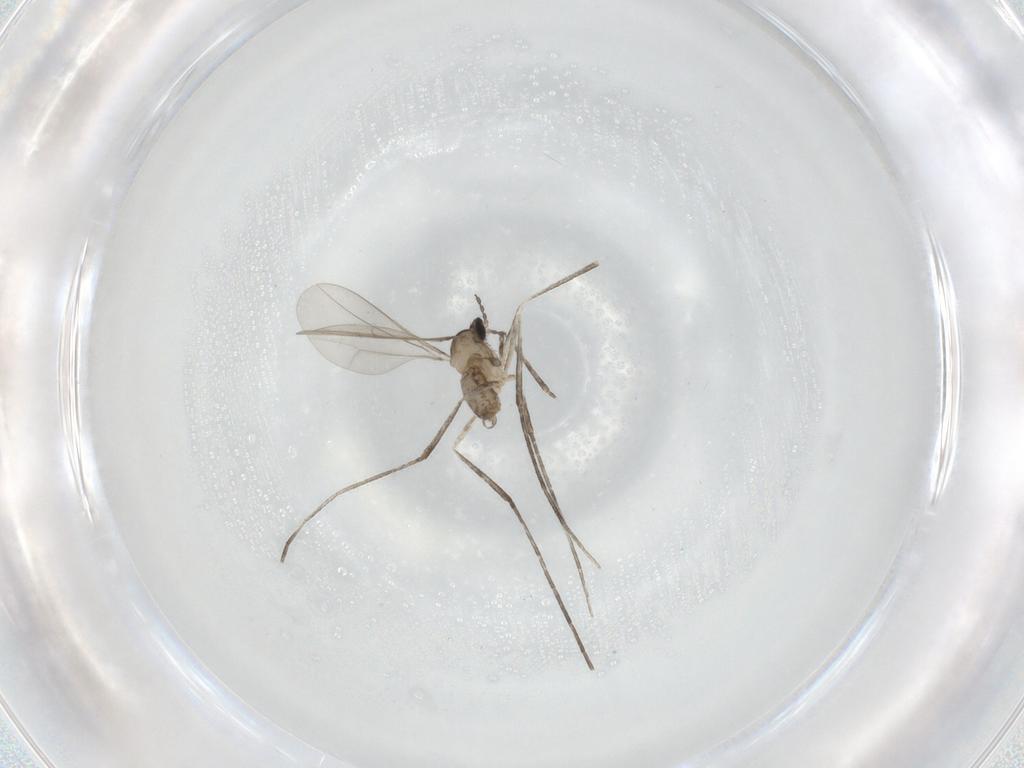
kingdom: Animalia
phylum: Arthropoda
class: Insecta
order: Diptera
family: Cecidomyiidae
